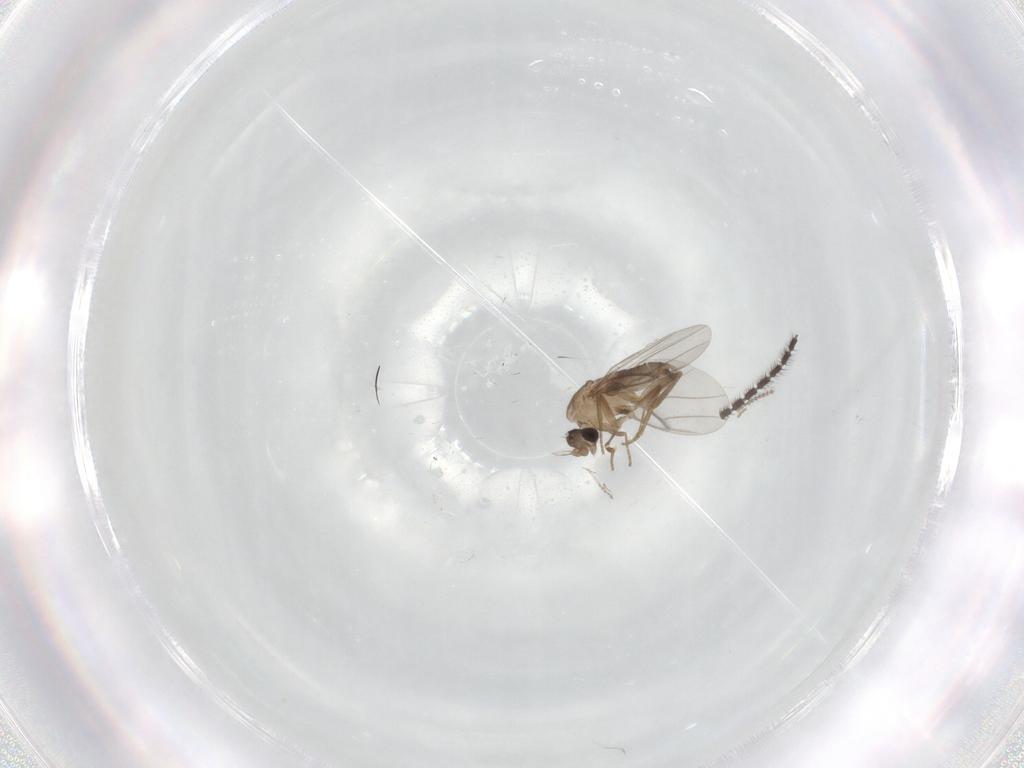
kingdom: Animalia
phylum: Arthropoda
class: Insecta
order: Diptera
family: Cecidomyiidae
